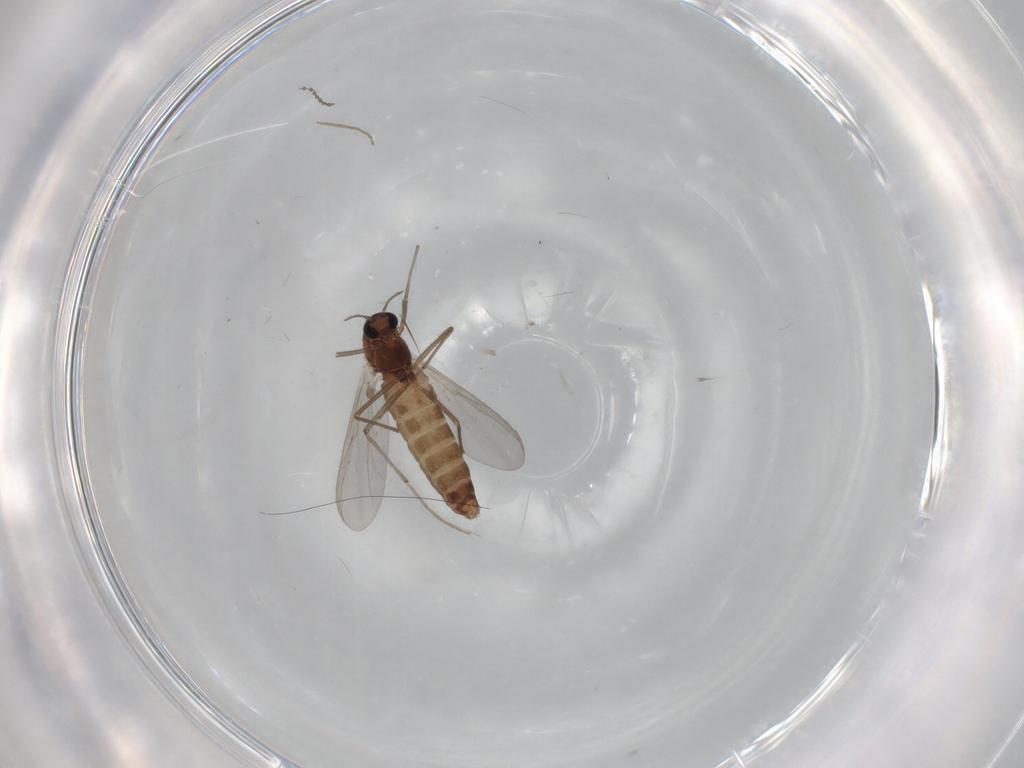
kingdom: Animalia
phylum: Arthropoda
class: Insecta
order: Diptera
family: Chironomidae
